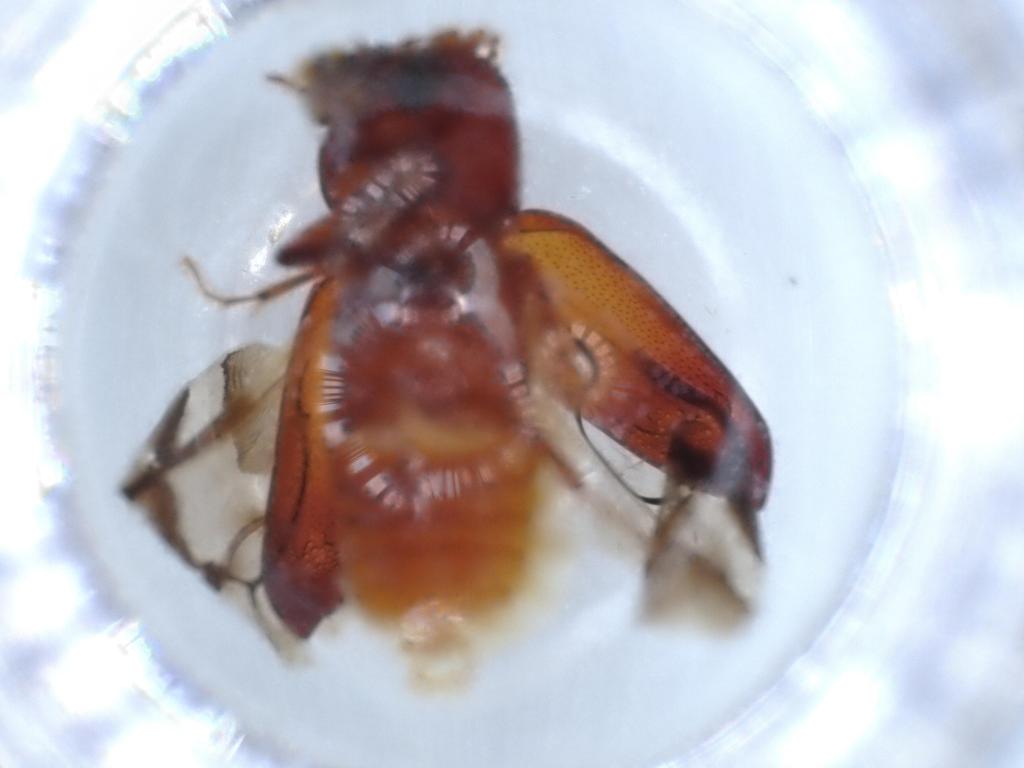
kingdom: Animalia
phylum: Arthropoda
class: Insecta
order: Coleoptera
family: Bostrichidae
